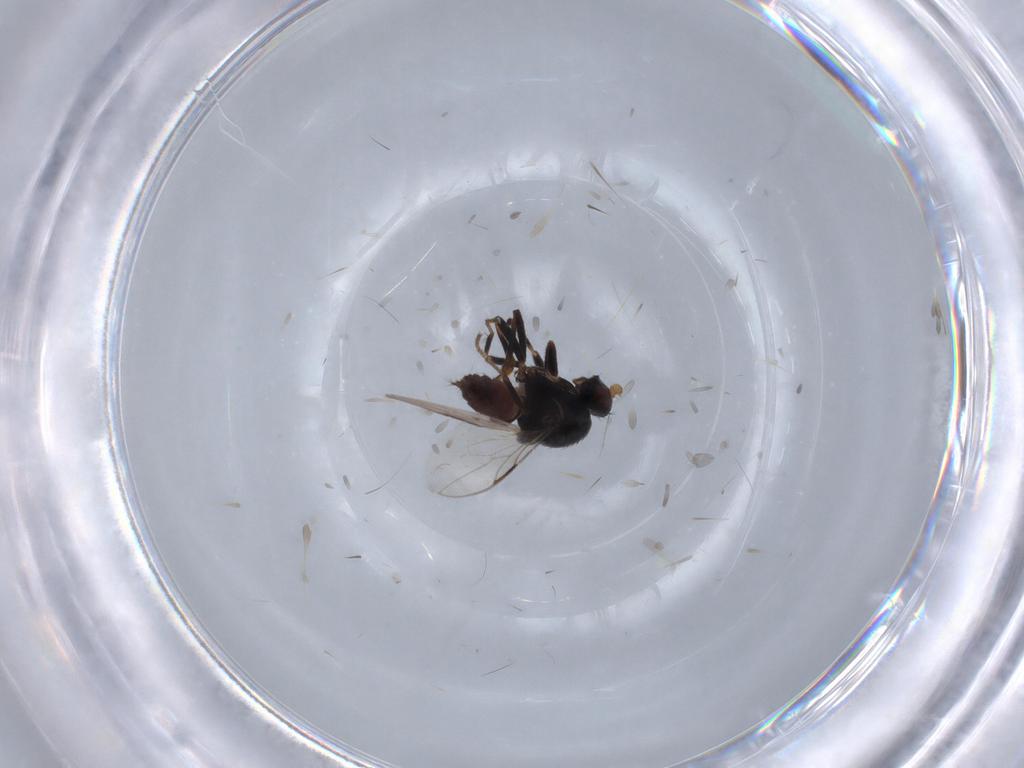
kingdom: Animalia
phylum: Arthropoda
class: Insecta
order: Diptera
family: Sphaeroceridae
